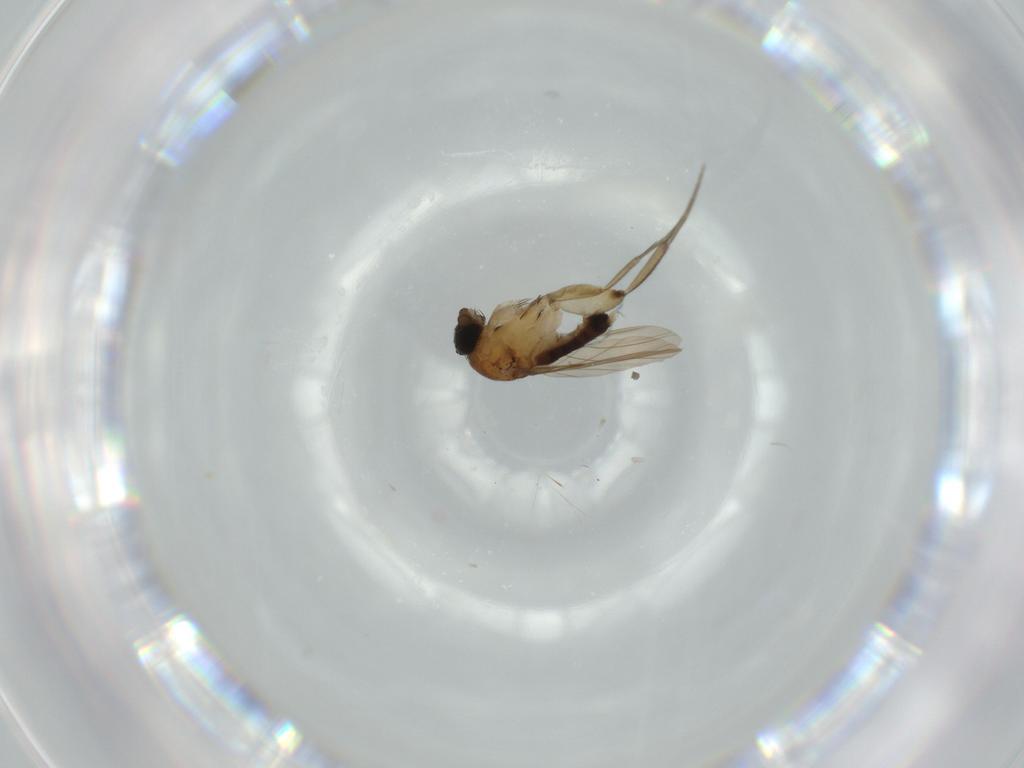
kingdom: Animalia
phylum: Arthropoda
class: Insecta
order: Diptera
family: Phoridae
